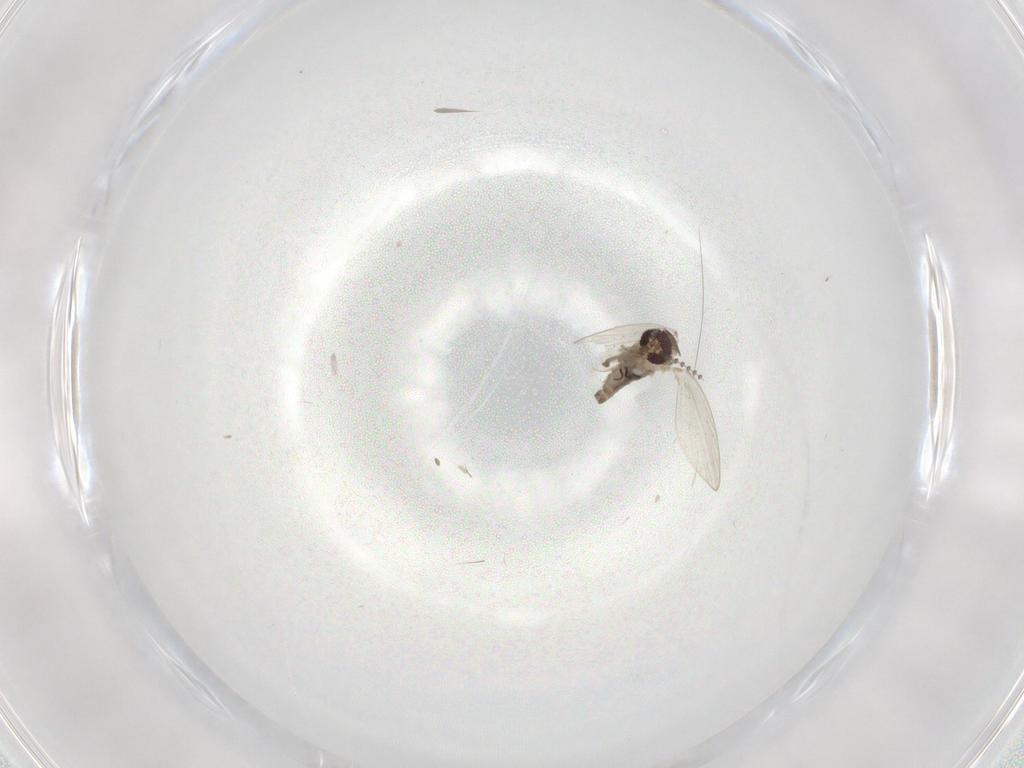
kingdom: Animalia
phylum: Arthropoda
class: Insecta
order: Diptera
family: Psychodidae
